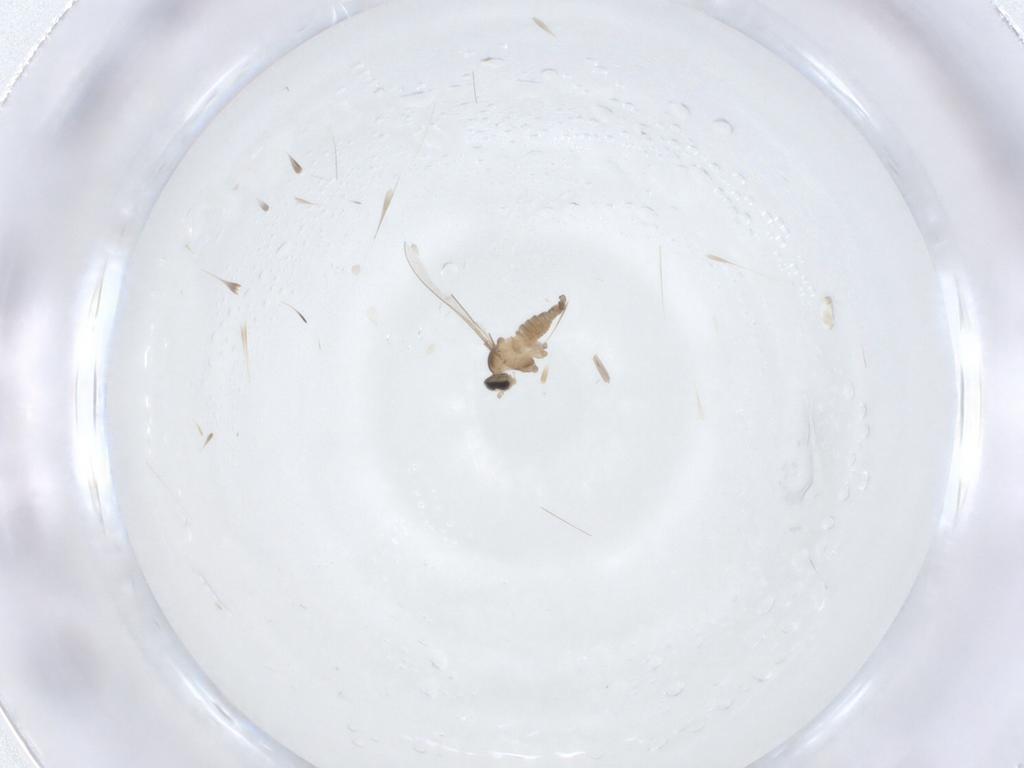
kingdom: Animalia
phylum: Arthropoda
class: Insecta
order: Diptera
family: Cecidomyiidae
